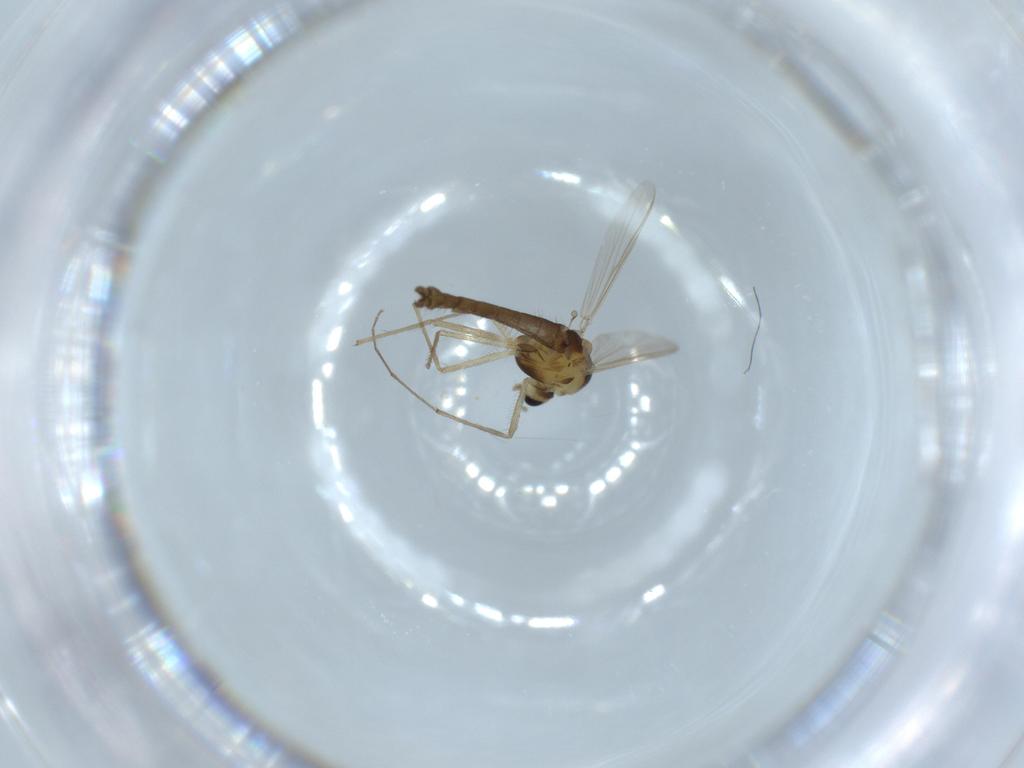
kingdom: Animalia
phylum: Arthropoda
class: Insecta
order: Diptera
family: Chironomidae
